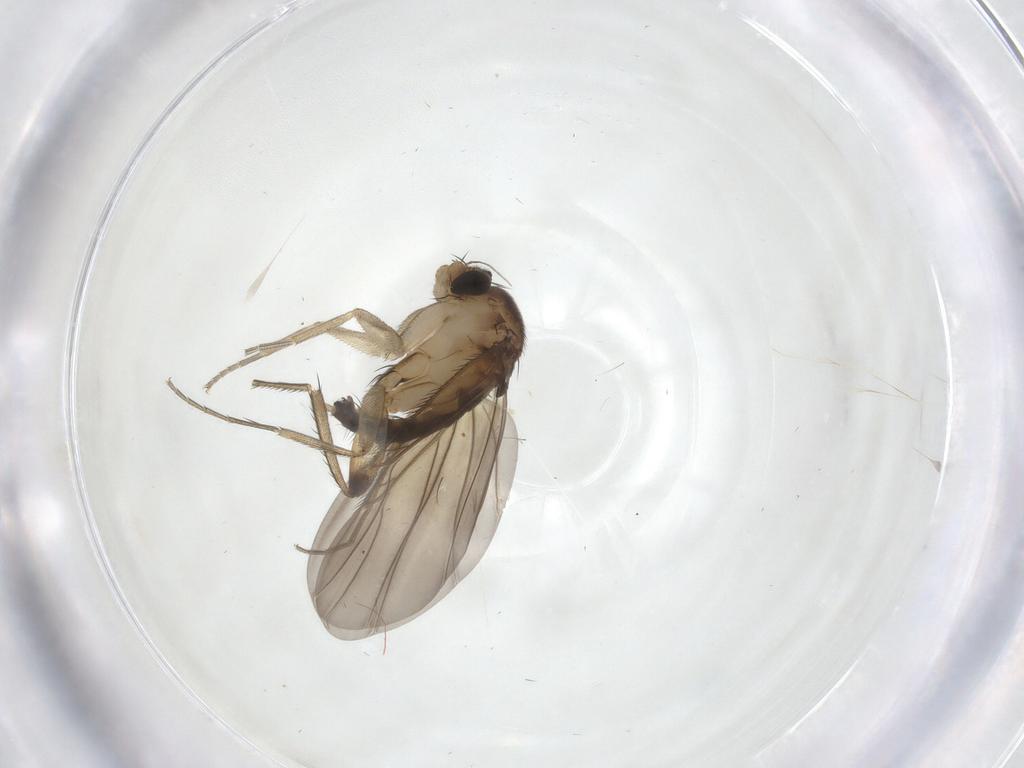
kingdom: Animalia
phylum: Arthropoda
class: Insecta
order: Diptera
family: Phoridae
